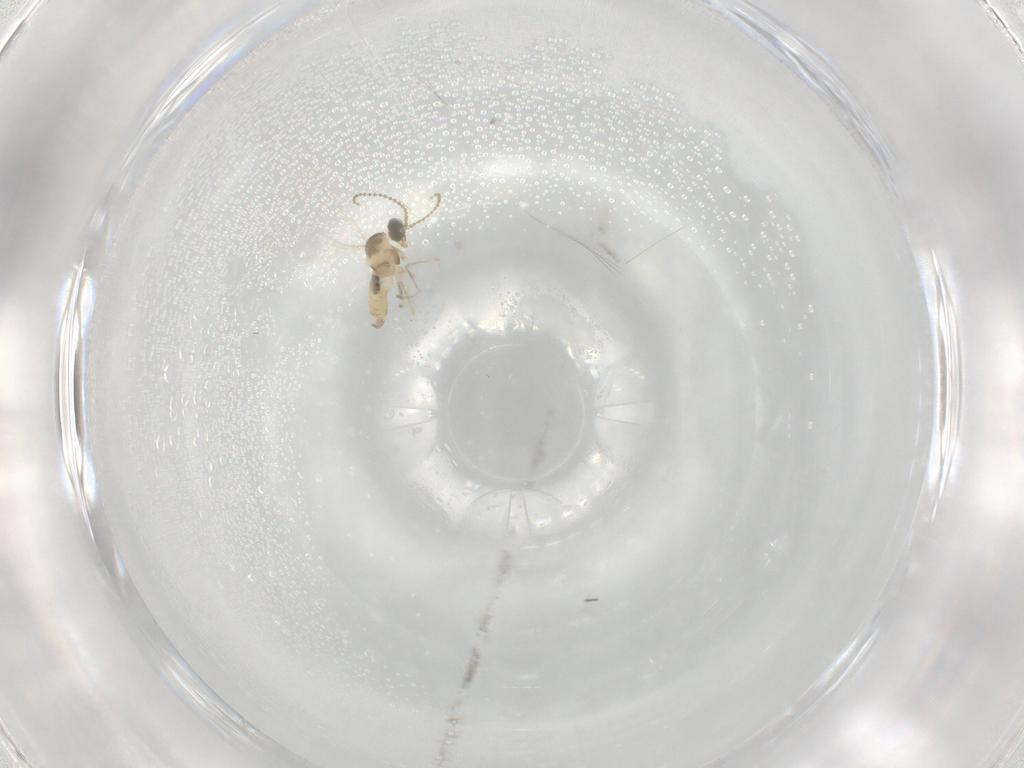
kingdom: Animalia
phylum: Arthropoda
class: Insecta
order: Diptera
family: Cecidomyiidae
